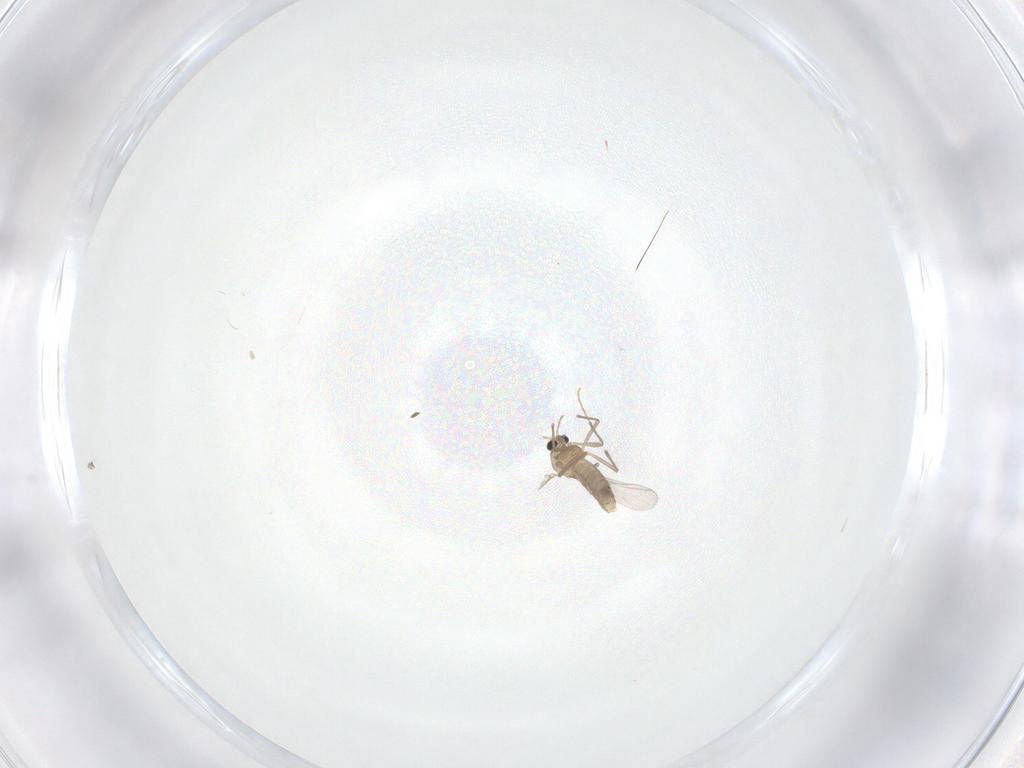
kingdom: Animalia
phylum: Arthropoda
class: Insecta
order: Diptera
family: Chironomidae
